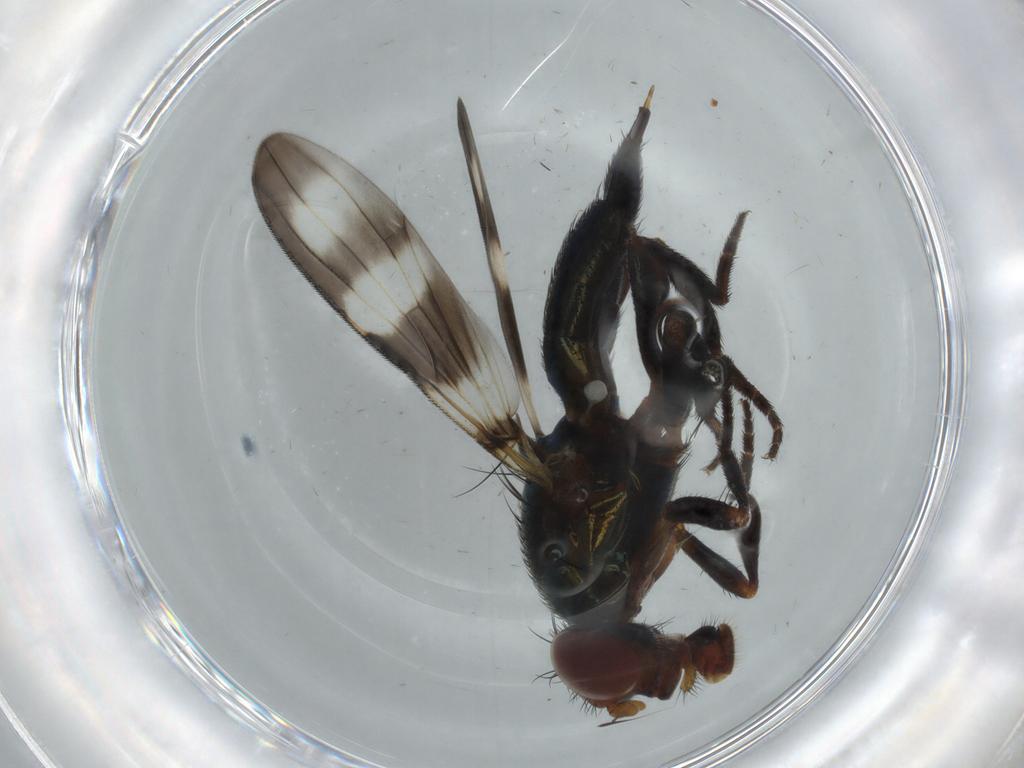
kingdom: Animalia
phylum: Arthropoda
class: Insecta
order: Diptera
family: Ulidiidae
